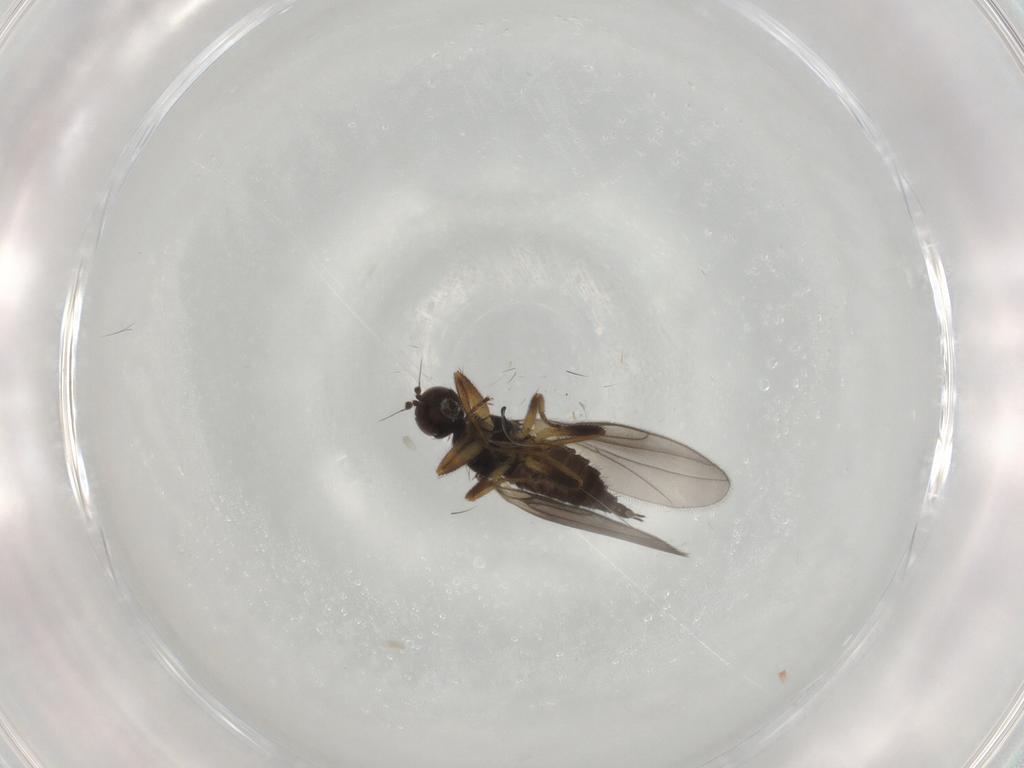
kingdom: Animalia
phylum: Arthropoda
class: Insecta
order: Diptera
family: Hybotidae
